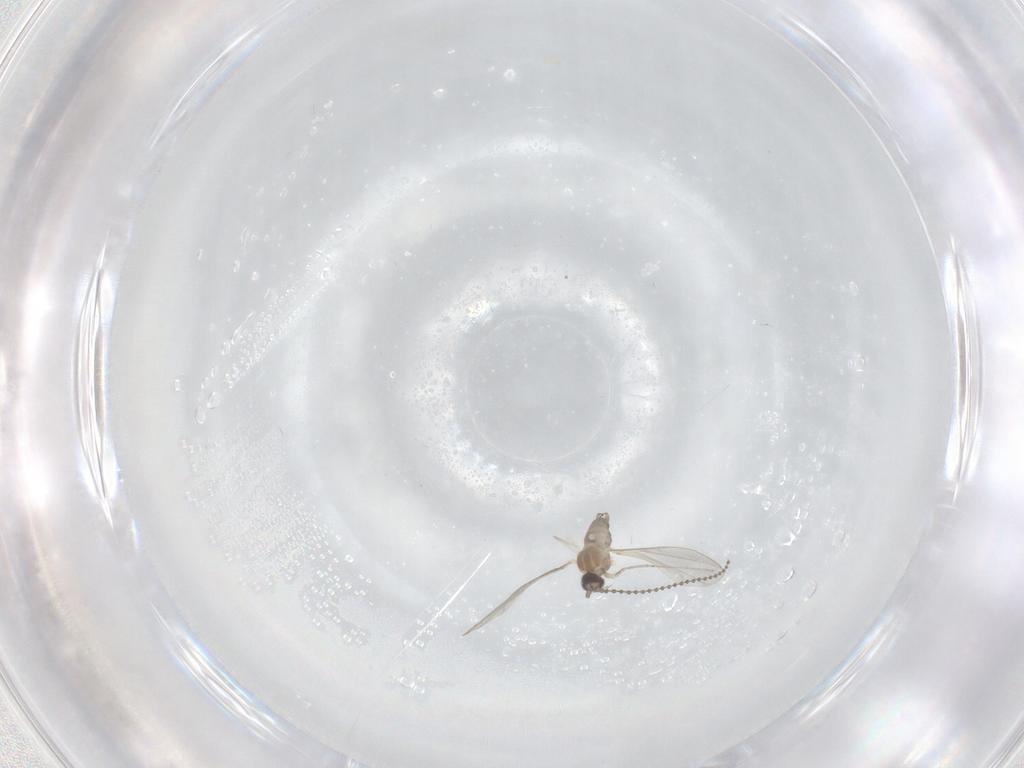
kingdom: Animalia
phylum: Arthropoda
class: Insecta
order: Diptera
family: Cecidomyiidae
